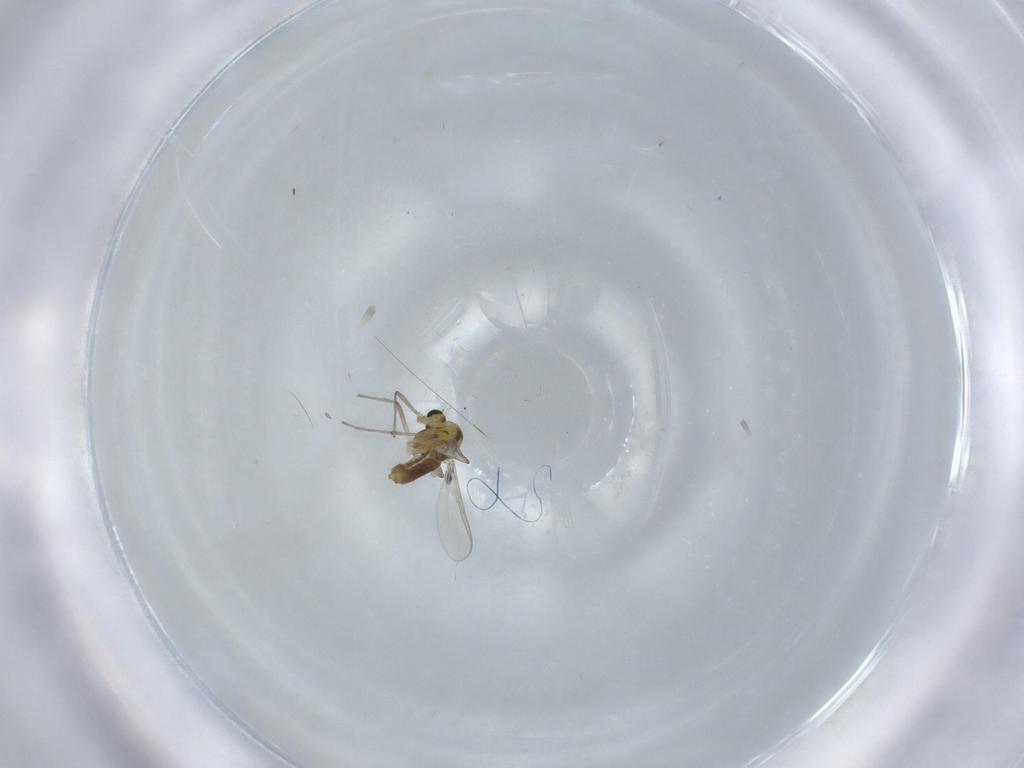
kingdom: Animalia
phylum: Arthropoda
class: Insecta
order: Diptera
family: Chironomidae
